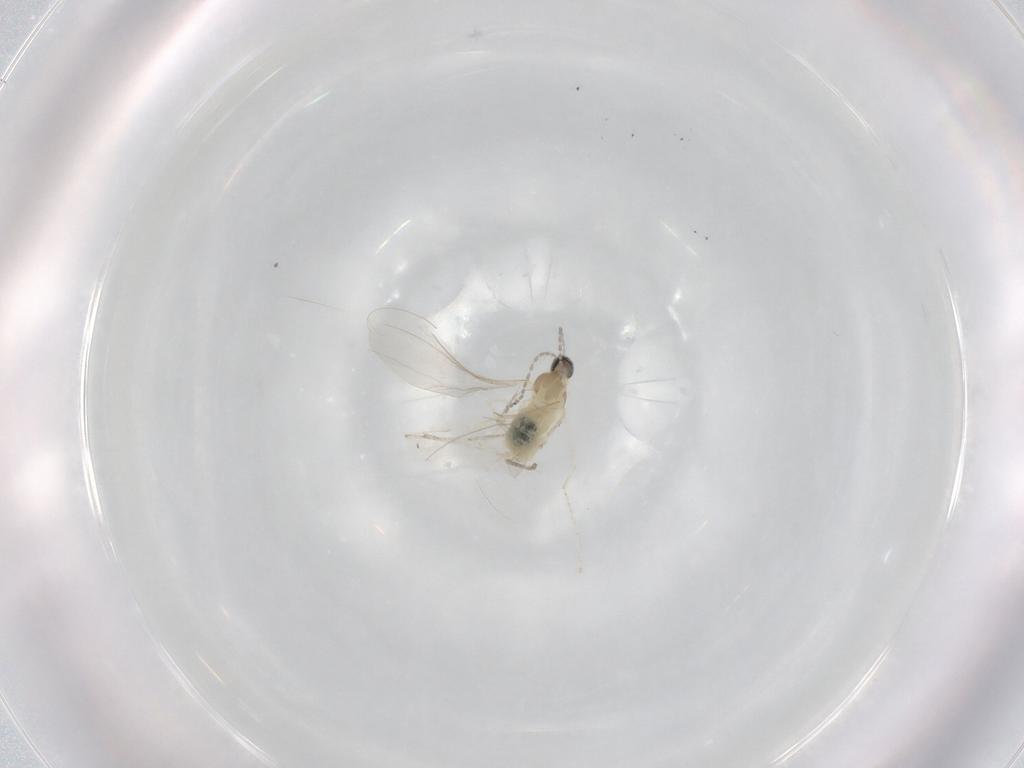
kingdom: Animalia
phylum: Arthropoda
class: Insecta
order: Diptera
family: Cecidomyiidae
